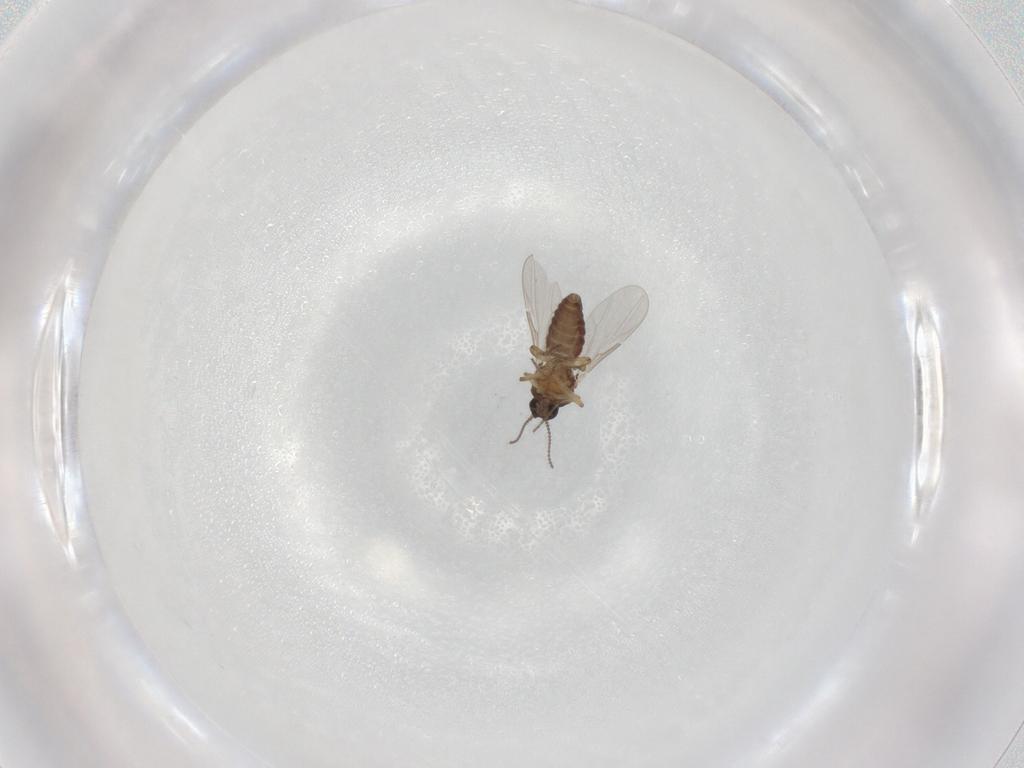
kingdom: Animalia
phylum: Arthropoda
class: Insecta
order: Diptera
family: Ceratopogonidae
